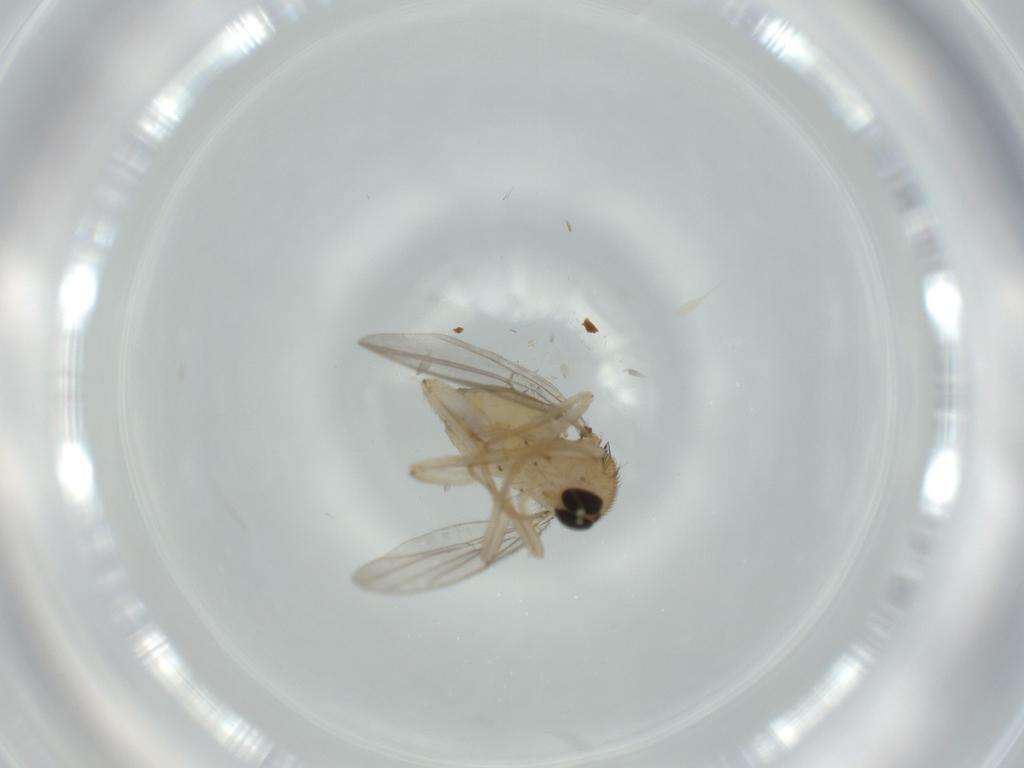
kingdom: Animalia
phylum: Arthropoda
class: Insecta
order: Diptera
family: Hybotidae
